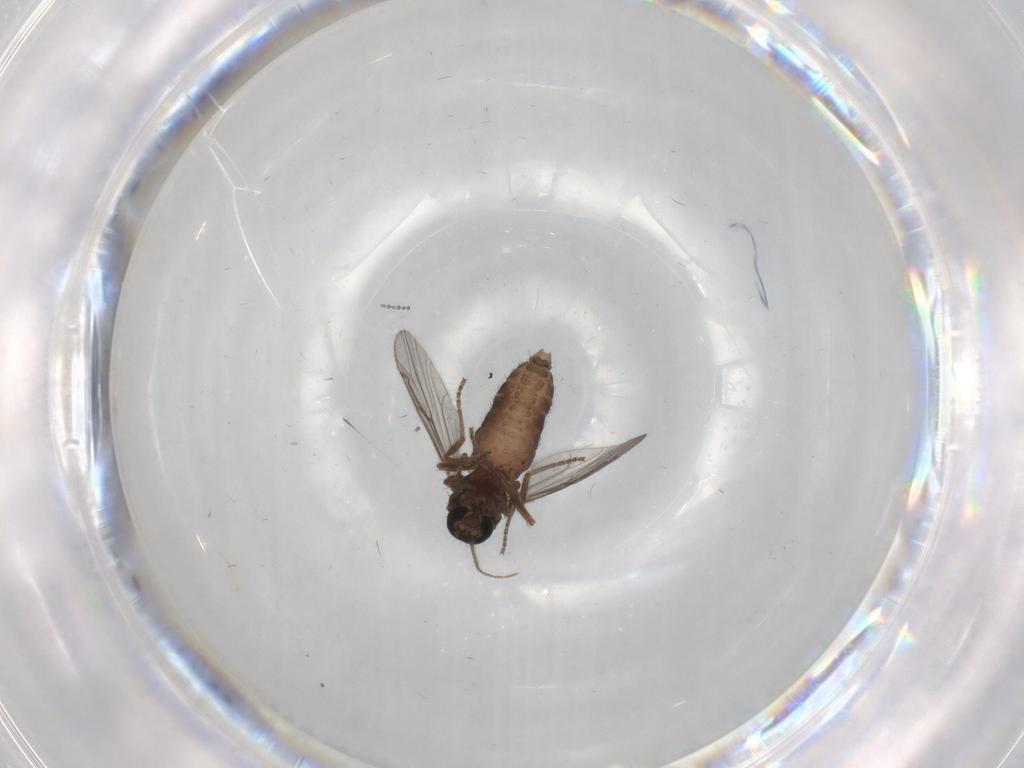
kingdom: Animalia
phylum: Arthropoda
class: Insecta
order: Diptera
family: Ceratopogonidae
